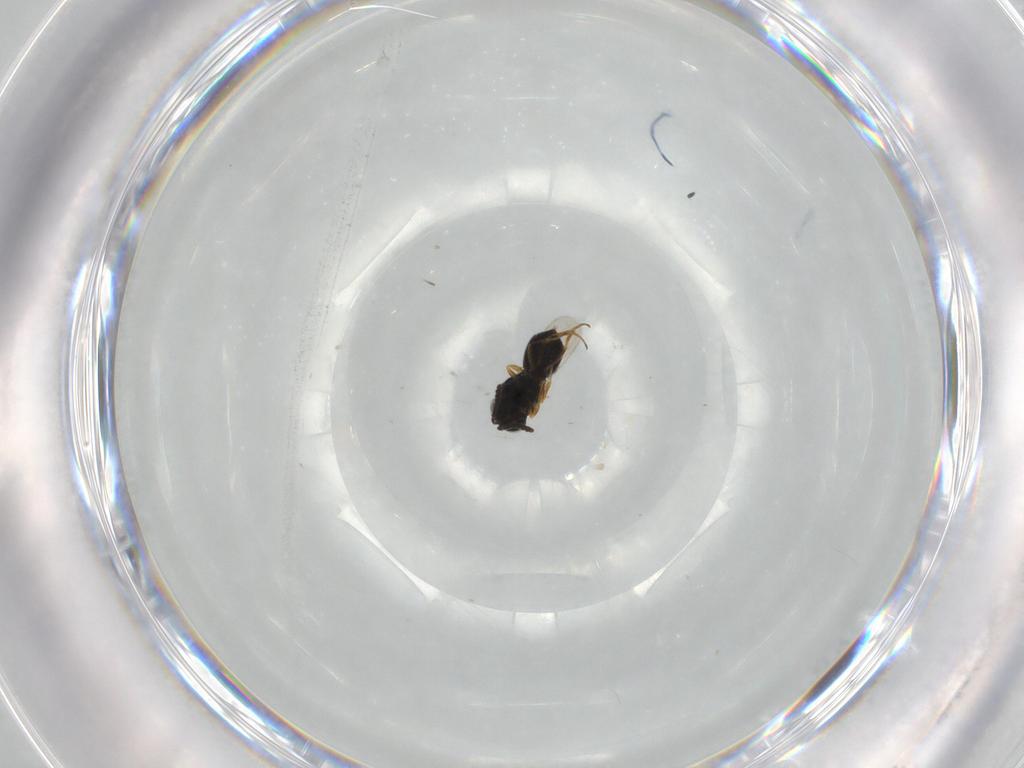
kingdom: Animalia
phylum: Arthropoda
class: Insecta
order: Hymenoptera
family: Scelionidae
